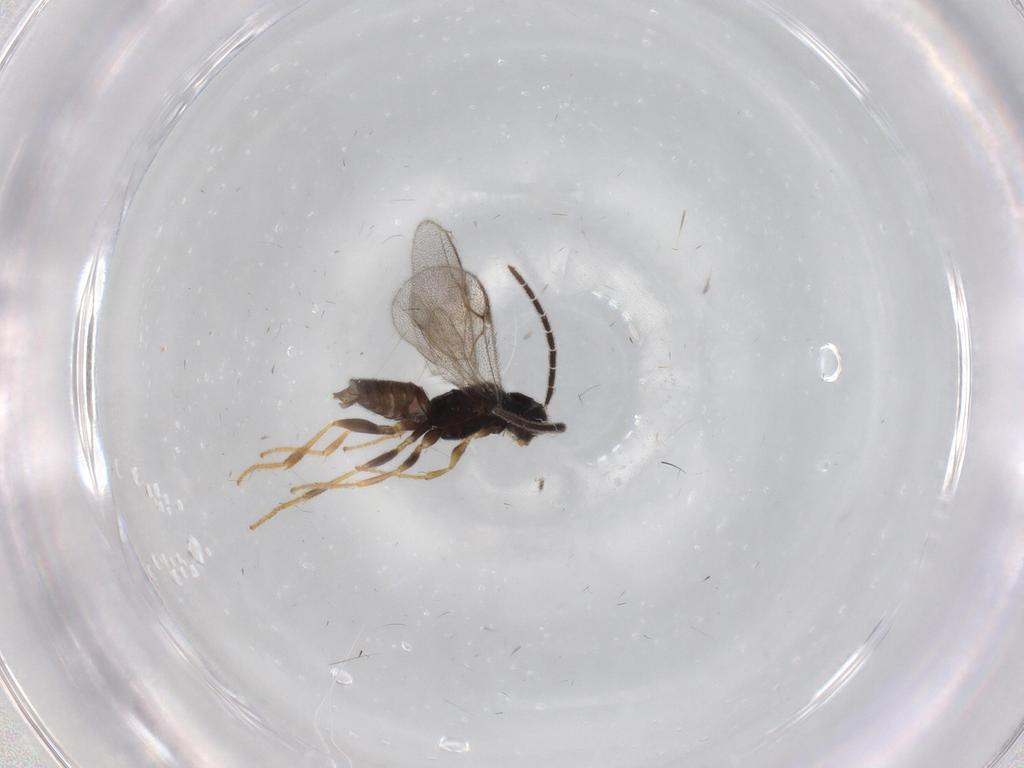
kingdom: Animalia
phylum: Arthropoda
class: Insecta
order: Hymenoptera
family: Dryinidae
